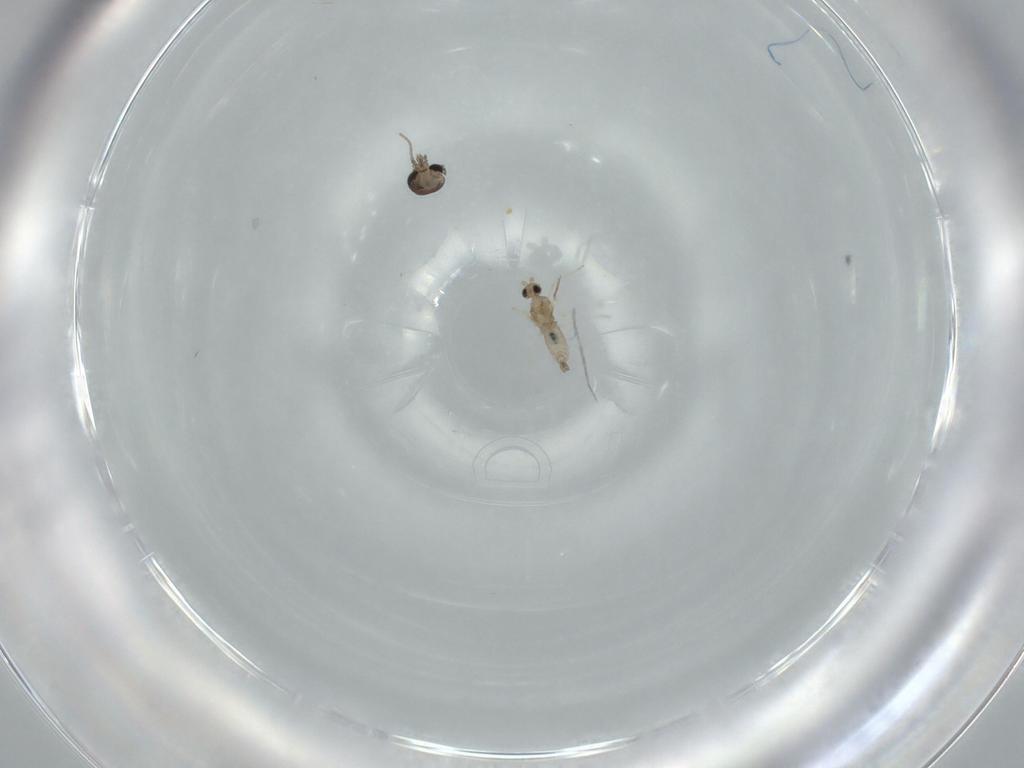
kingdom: Animalia
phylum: Arthropoda
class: Insecta
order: Diptera
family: Ceratopogonidae
